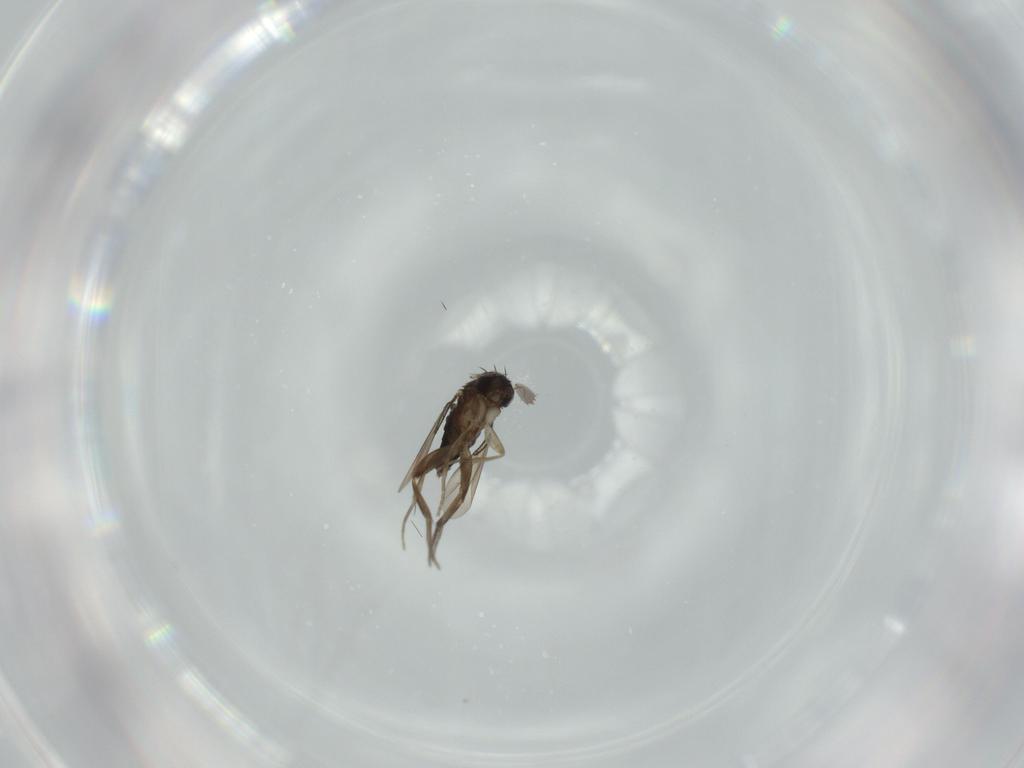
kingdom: Animalia
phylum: Arthropoda
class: Insecta
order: Diptera
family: Phoridae
